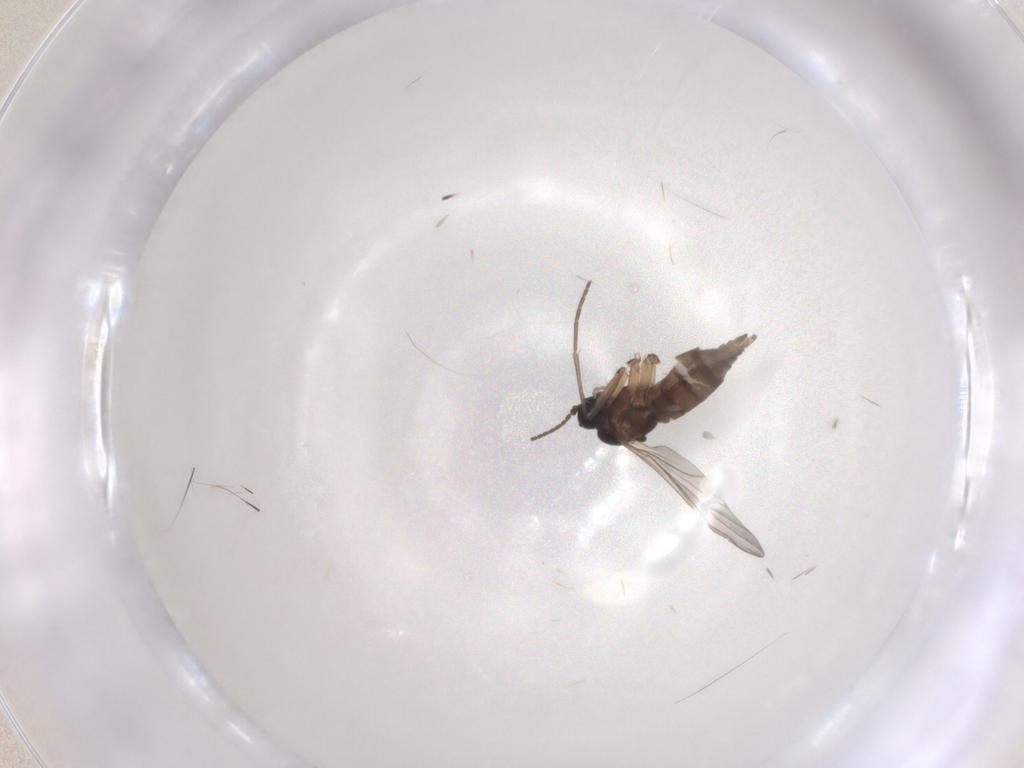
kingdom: Animalia
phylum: Arthropoda
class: Insecta
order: Diptera
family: Sciaridae
